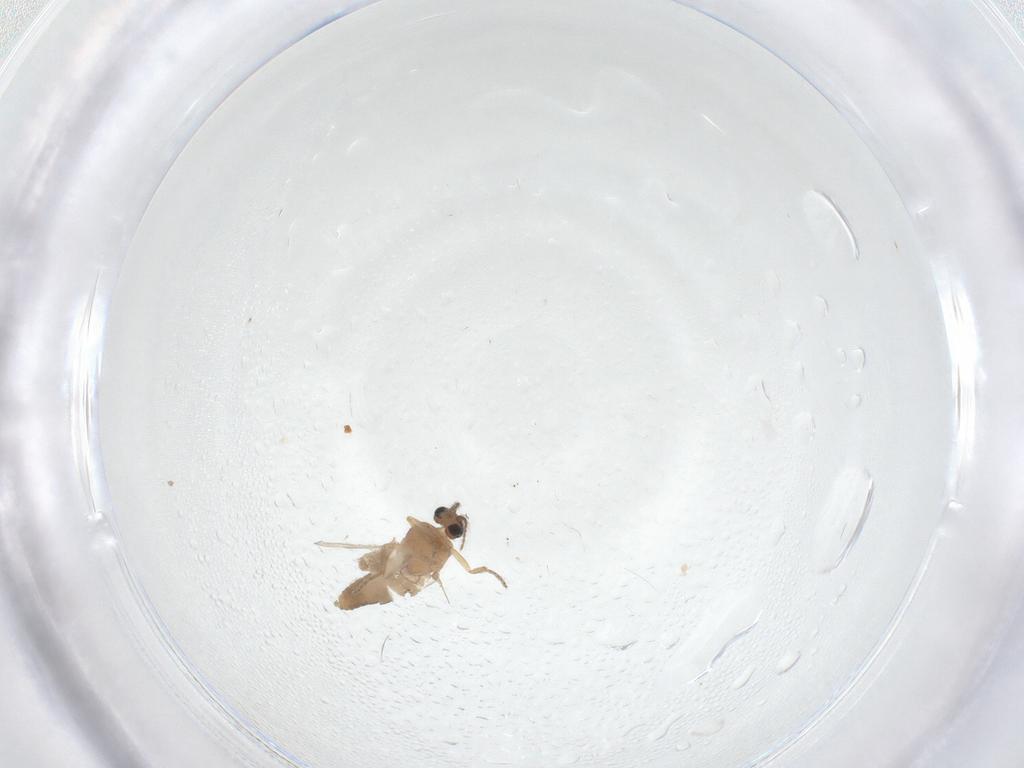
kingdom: Animalia
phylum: Arthropoda
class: Insecta
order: Diptera
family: Ceratopogonidae
